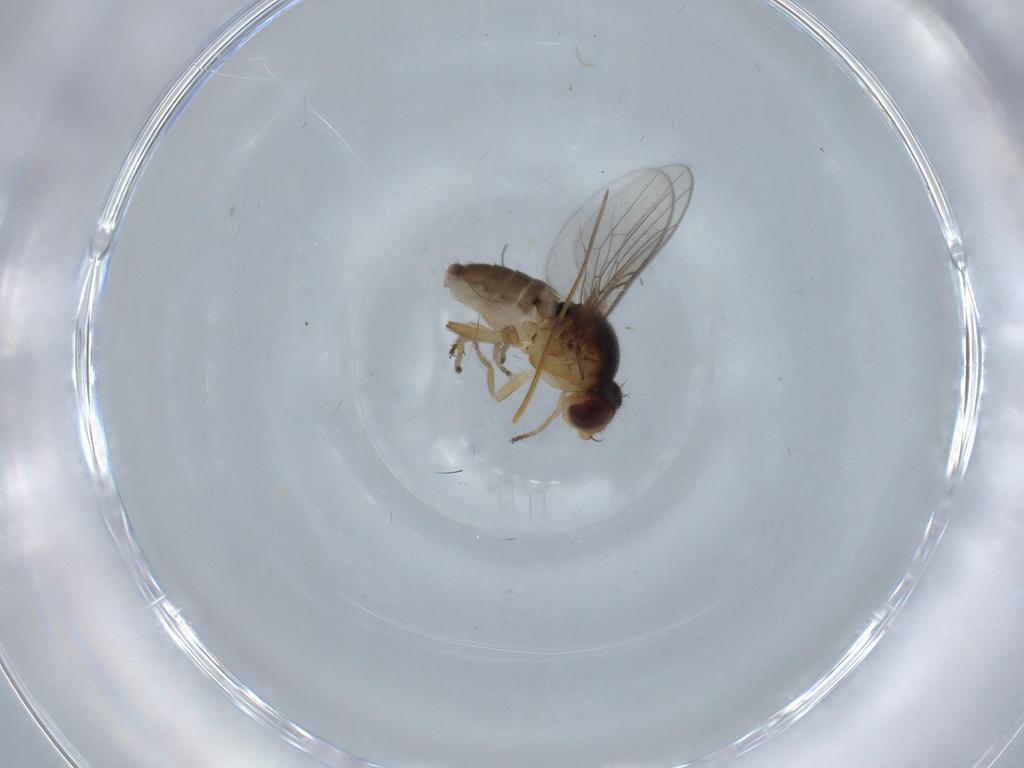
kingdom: Animalia
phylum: Arthropoda
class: Insecta
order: Diptera
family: Chloropidae
